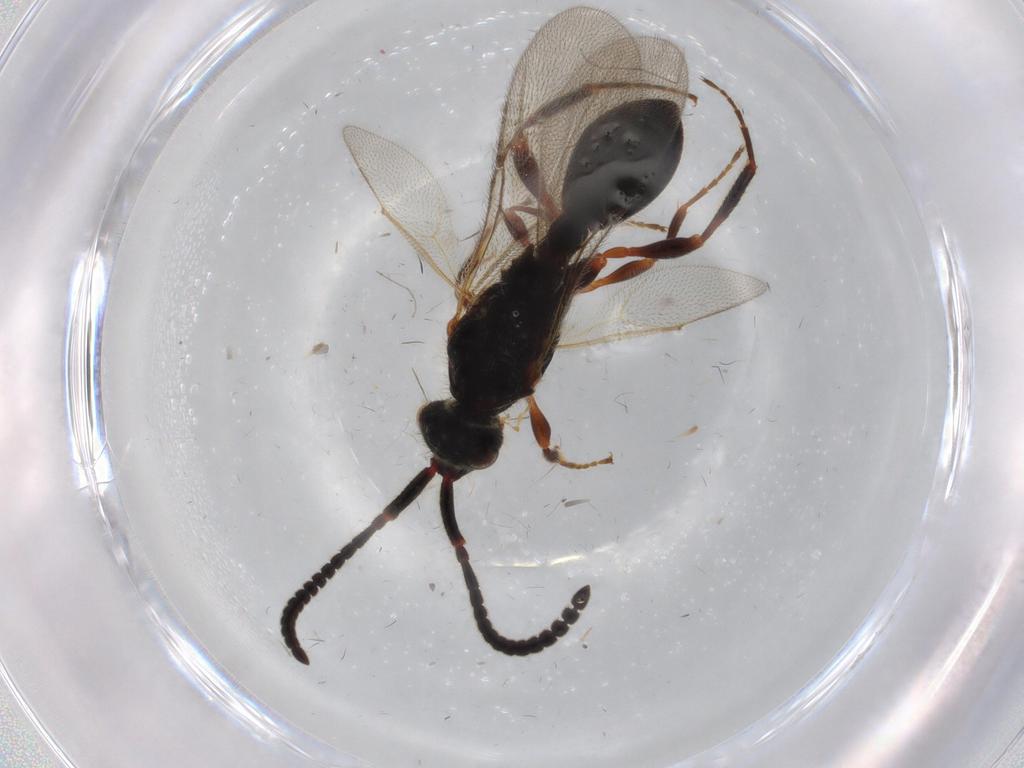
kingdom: Animalia
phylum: Arthropoda
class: Insecta
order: Hymenoptera
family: Diapriidae
